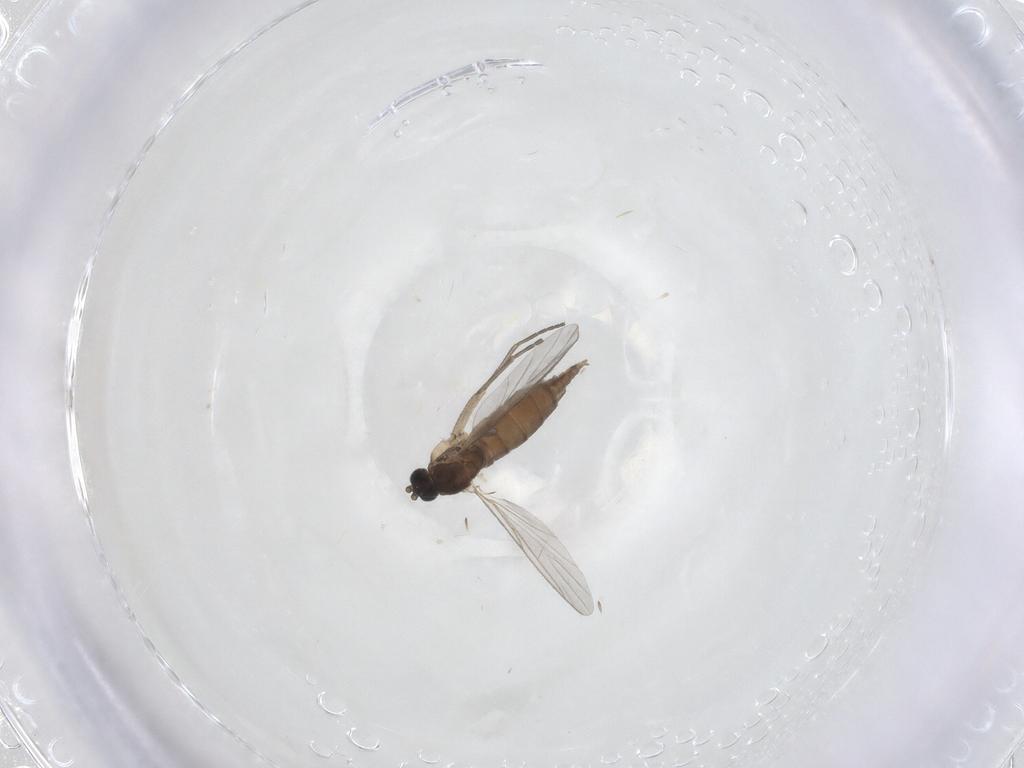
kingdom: Animalia
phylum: Arthropoda
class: Insecta
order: Diptera
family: Sciaridae
